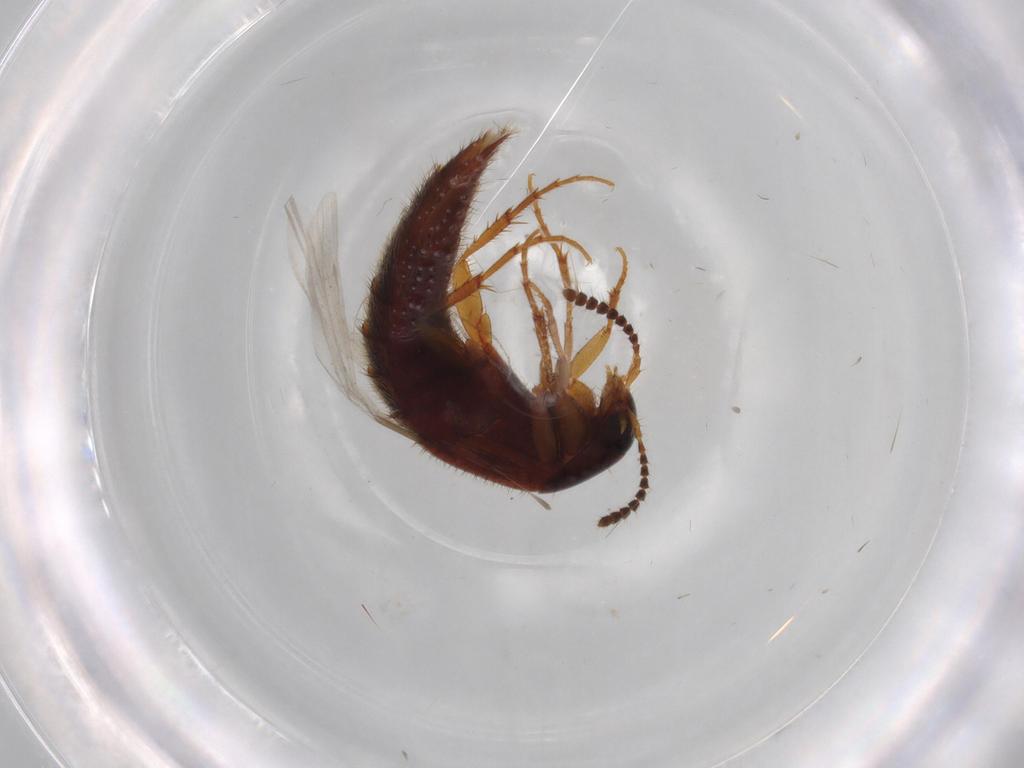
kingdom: Animalia
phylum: Arthropoda
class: Insecta
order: Coleoptera
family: Staphylinidae
